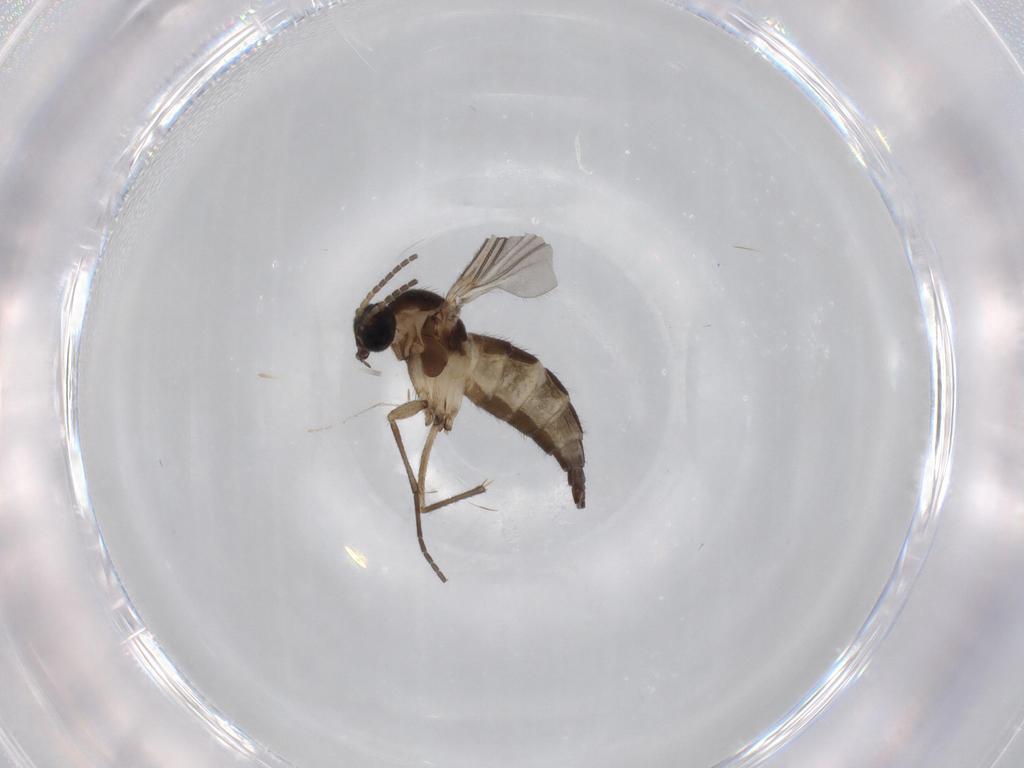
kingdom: Animalia
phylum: Arthropoda
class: Insecta
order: Diptera
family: Sciaridae
